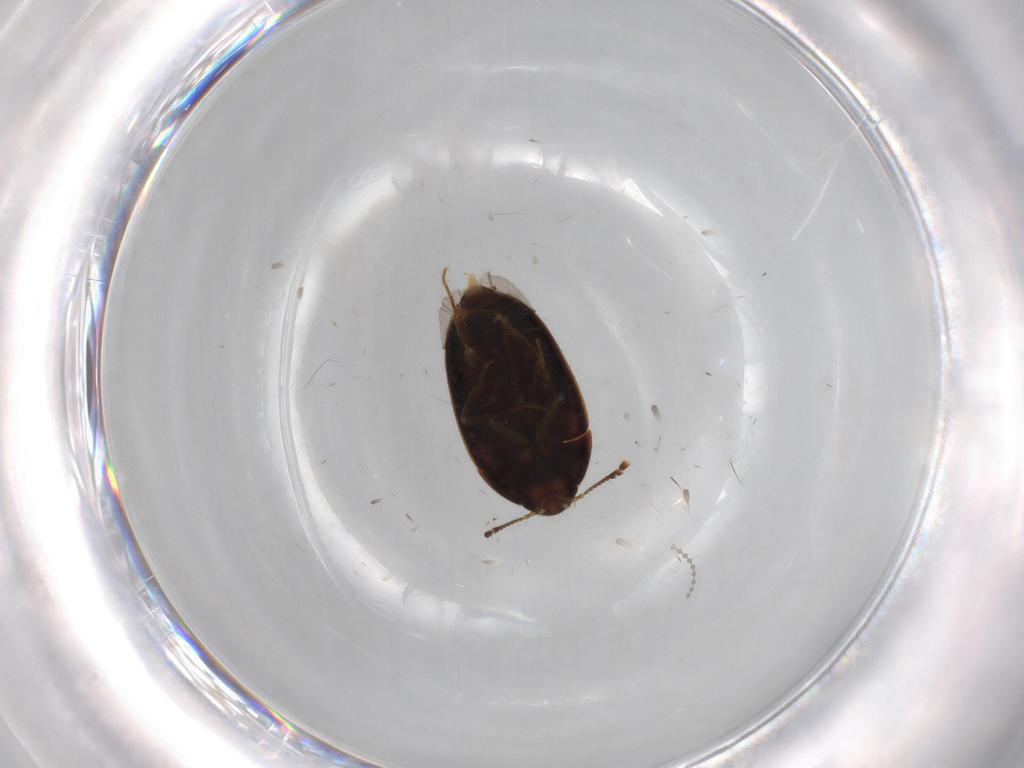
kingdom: Animalia
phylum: Arthropoda
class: Insecta
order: Coleoptera
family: Mycetophagidae
